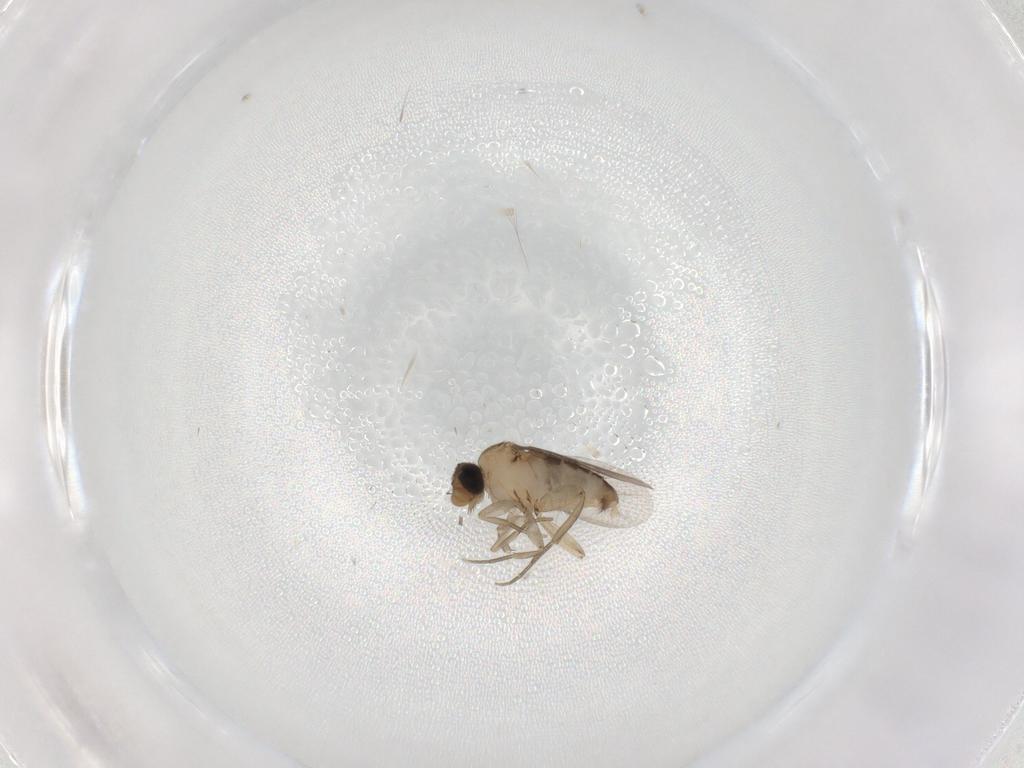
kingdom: Animalia
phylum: Arthropoda
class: Insecta
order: Diptera
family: Phoridae
